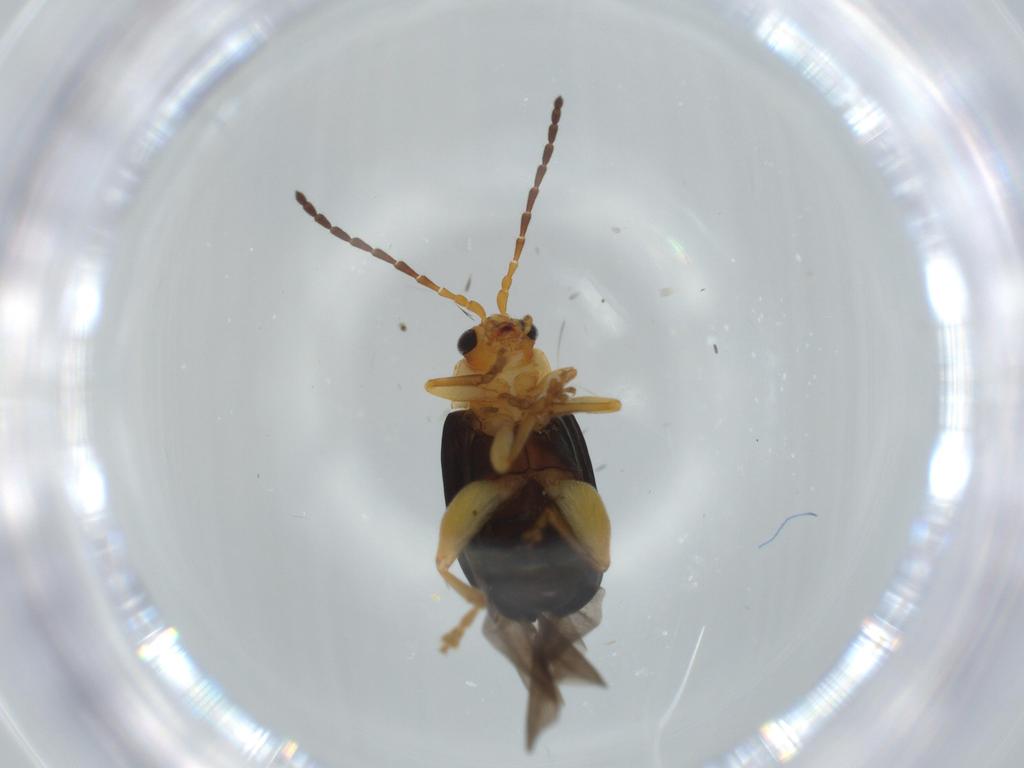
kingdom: Animalia
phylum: Arthropoda
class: Insecta
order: Coleoptera
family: Chrysomelidae
